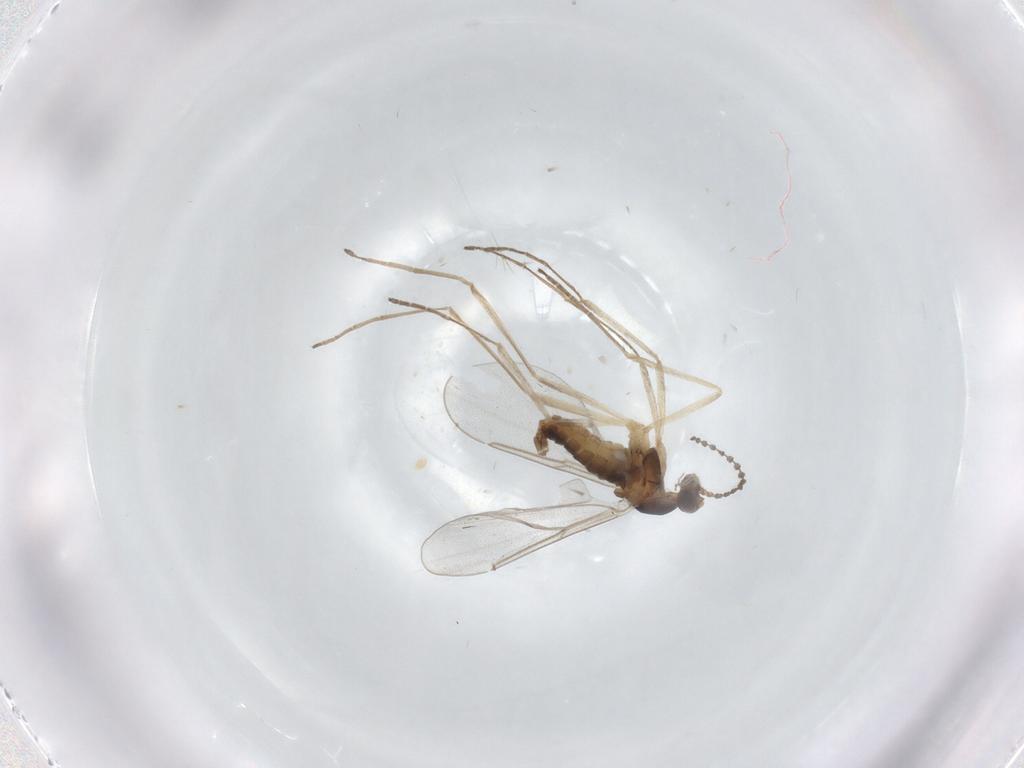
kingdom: Animalia
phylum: Arthropoda
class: Insecta
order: Diptera
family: Cecidomyiidae
